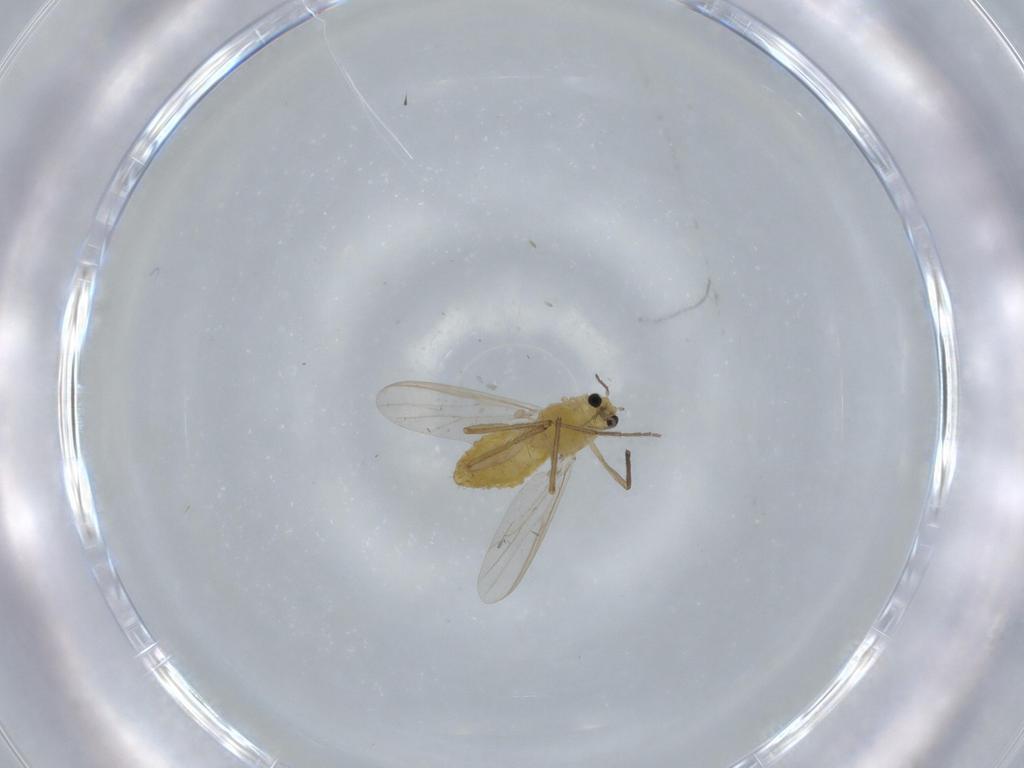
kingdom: Animalia
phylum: Arthropoda
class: Insecta
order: Diptera
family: Chironomidae
